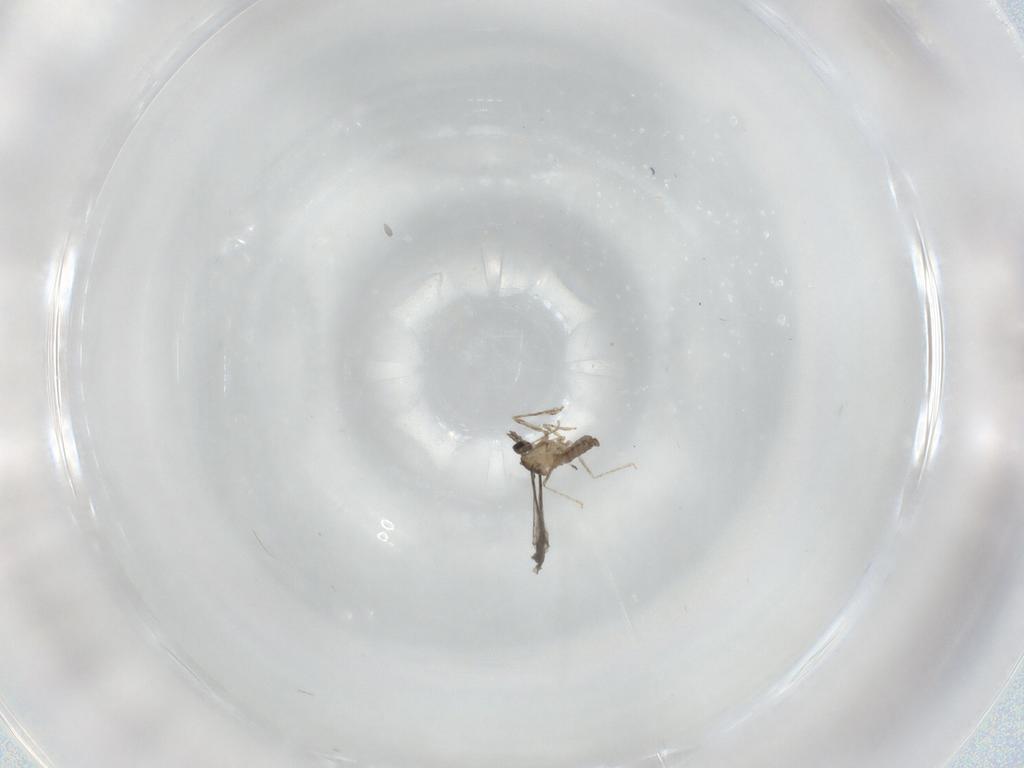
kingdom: Animalia
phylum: Arthropoda
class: Insecta
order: Diptera
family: Cecidomyiidae
